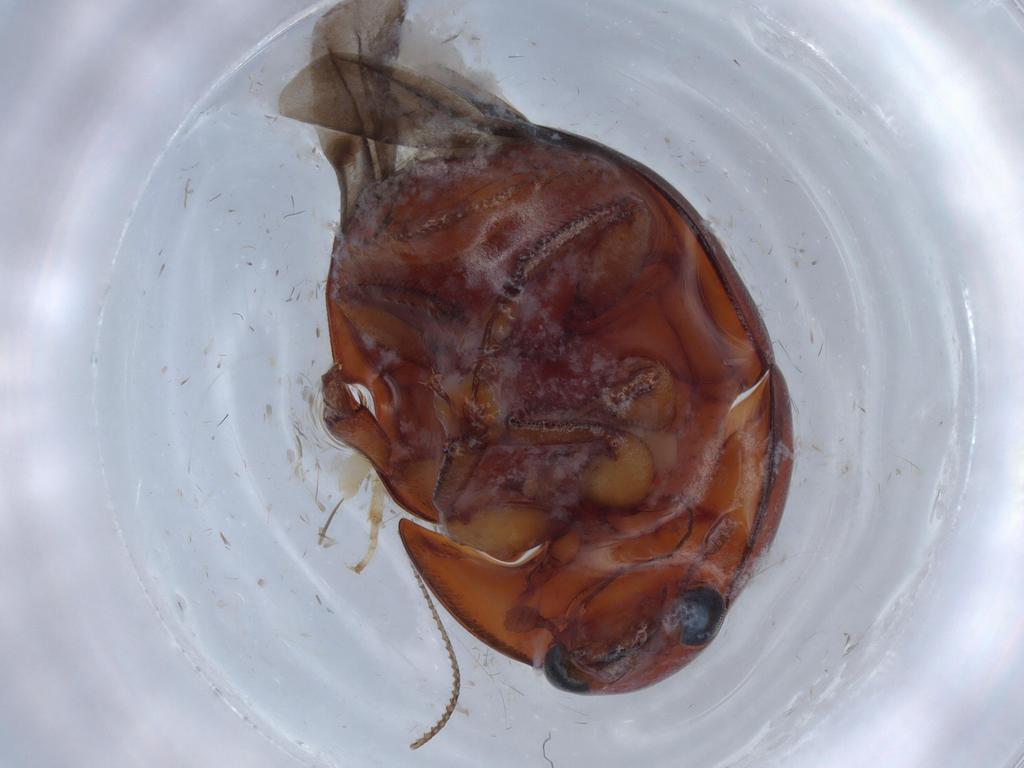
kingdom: Animalia
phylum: Arthropoda
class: Insecta
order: Coleoptera
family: Nitidulidae
